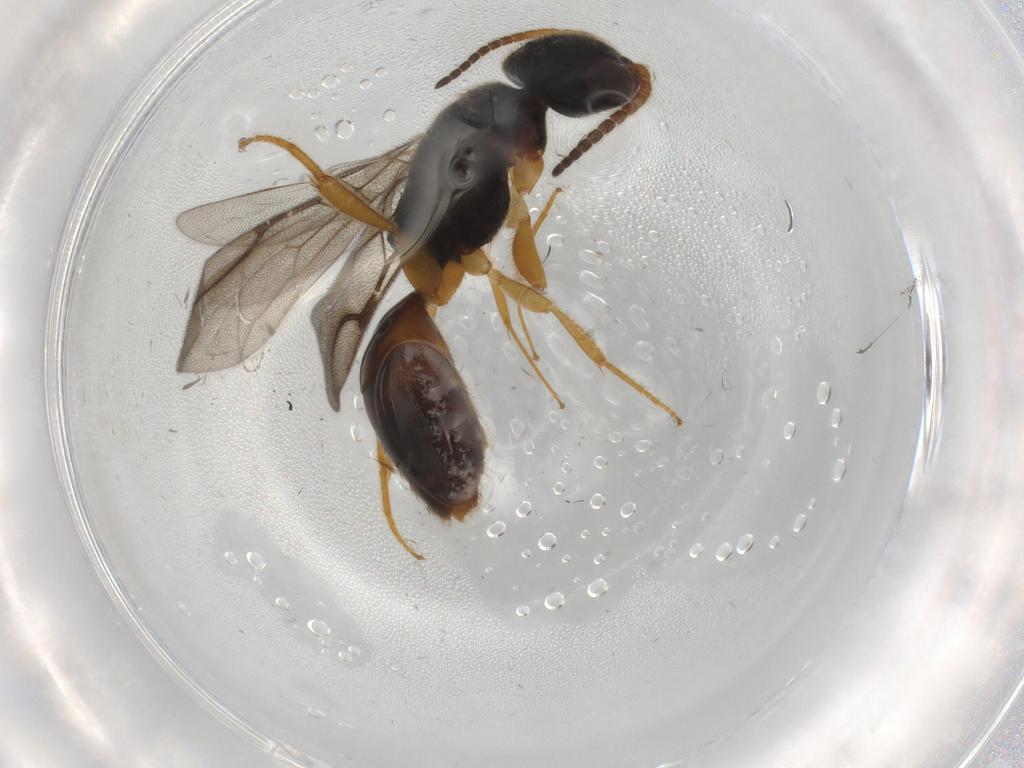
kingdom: Animalia
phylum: Arthropoda
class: Insecta
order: Hymenoptera
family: Bethylidae
